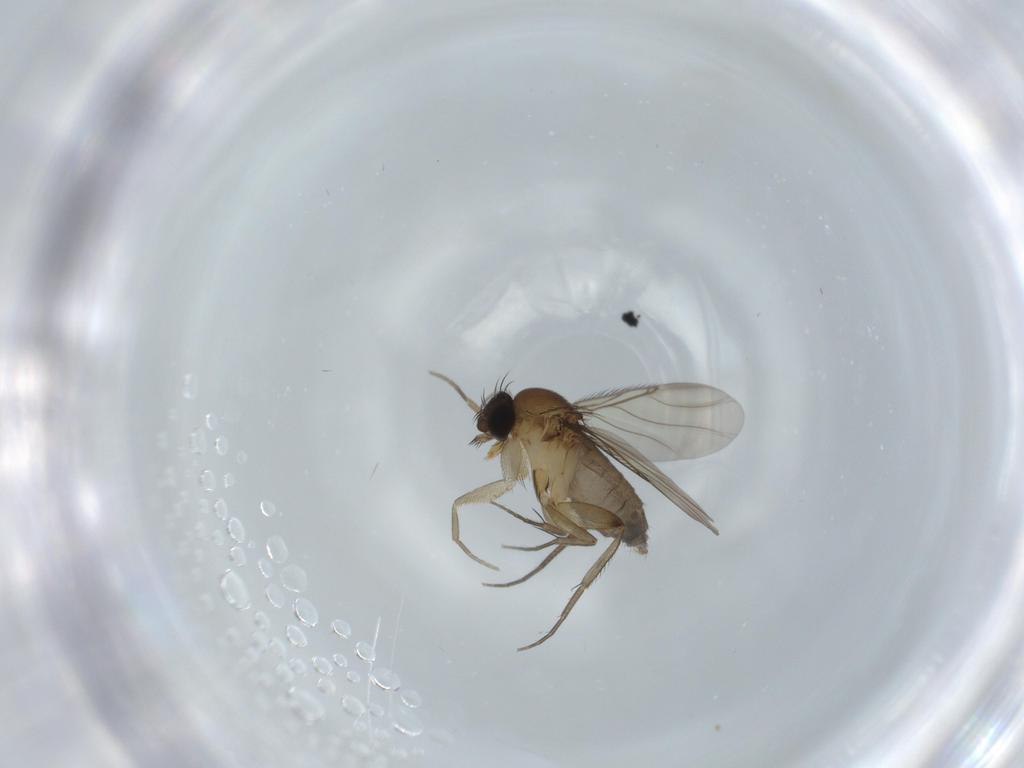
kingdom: Animalia
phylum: Arthropoda
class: Insecta
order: Diptera
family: Phoridae
